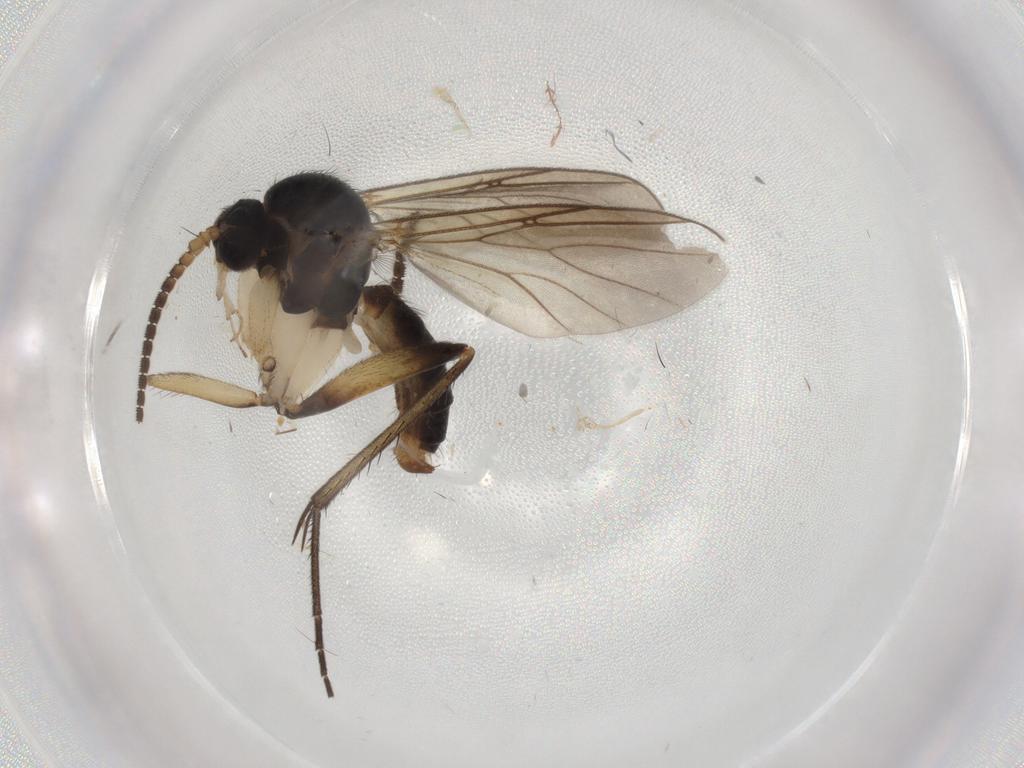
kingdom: Animalia
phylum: Arthropoda
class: Insecta
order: Diptera
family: Cecidomyiidae
